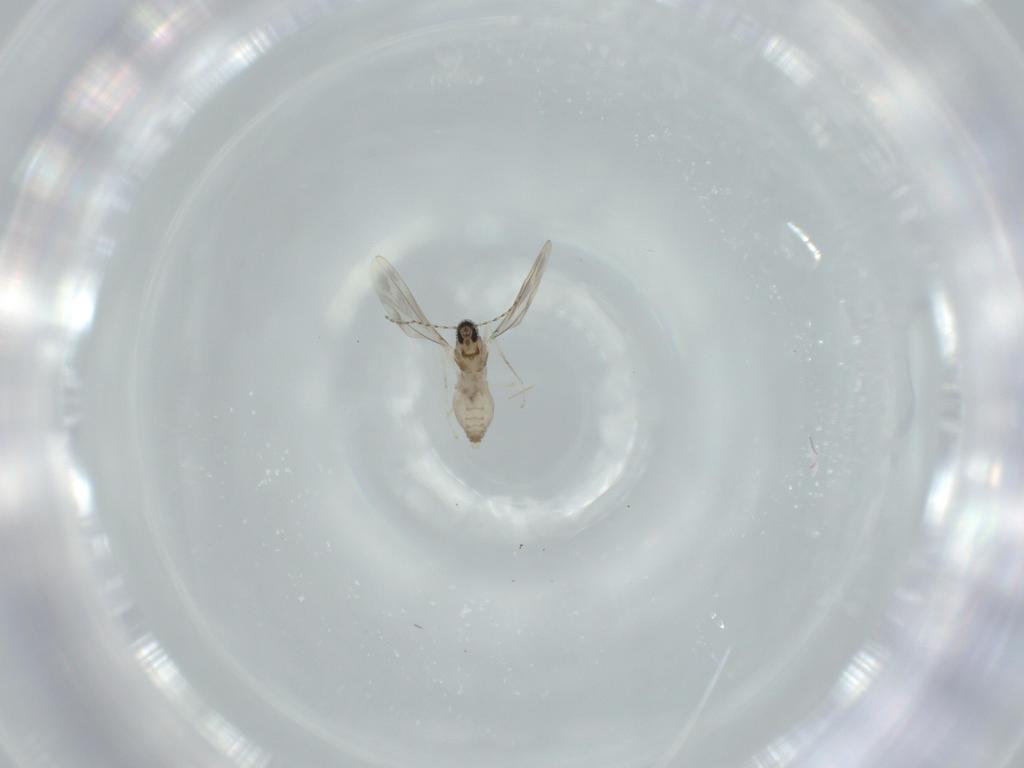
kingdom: Animalia
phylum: Arthropoda
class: Insecta
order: Diptera
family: Cecidomyiidae
